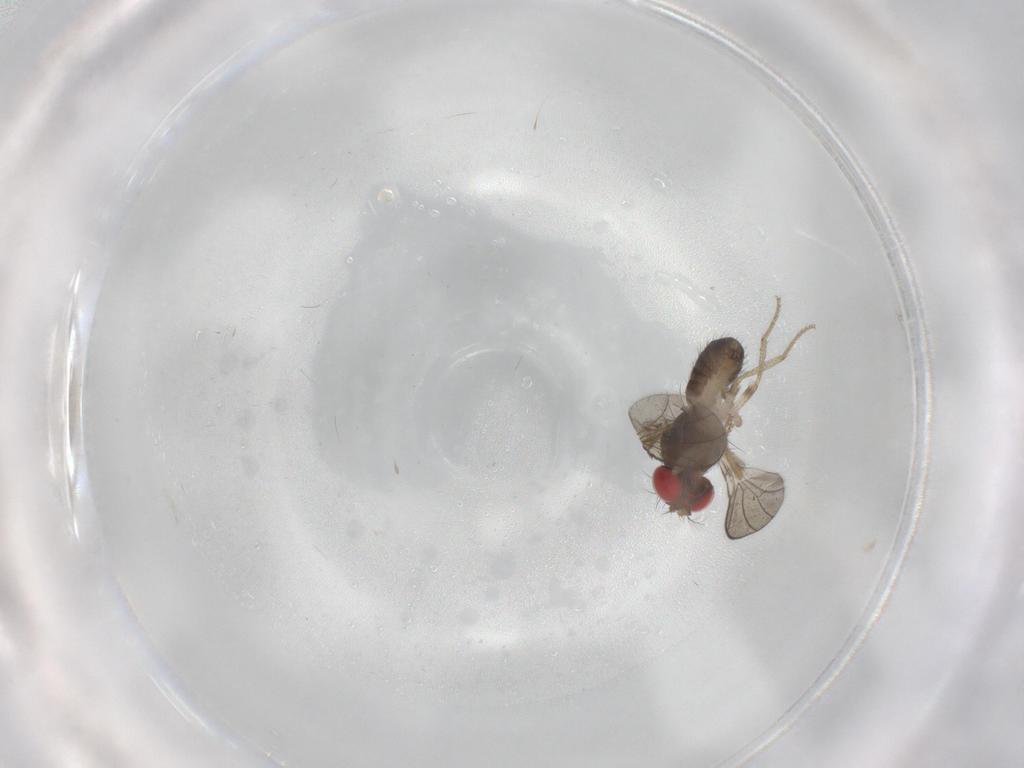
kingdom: Animalia
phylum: Arthropoda
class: Insecta
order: Diptera
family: Drosophilidae
